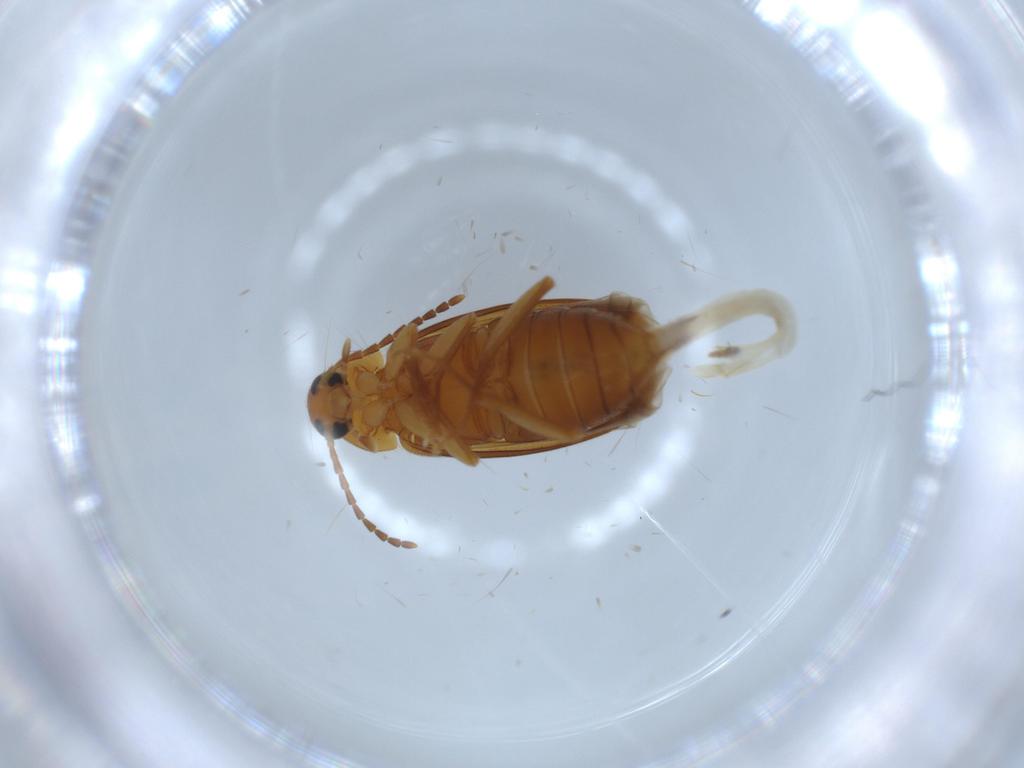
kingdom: Animalia
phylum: Arthropoda
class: Insecta
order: Coleoptera
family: Scraptiidae
